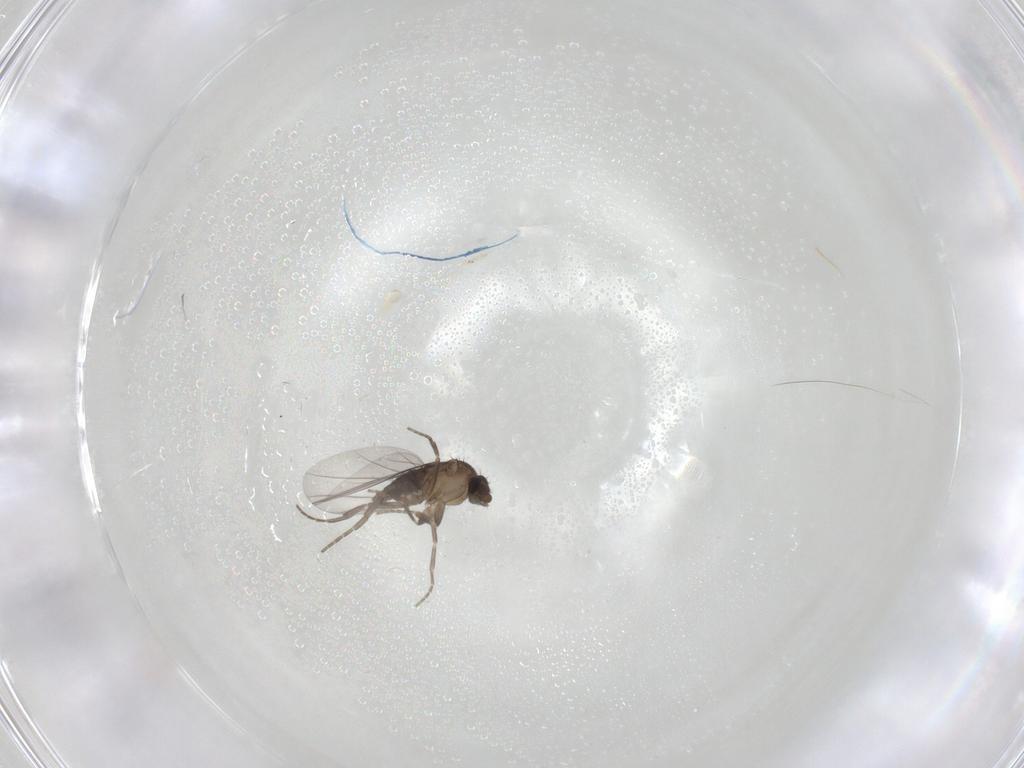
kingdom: Animalia
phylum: Arthropoda
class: Insecta
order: Diptera
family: Phoridae
